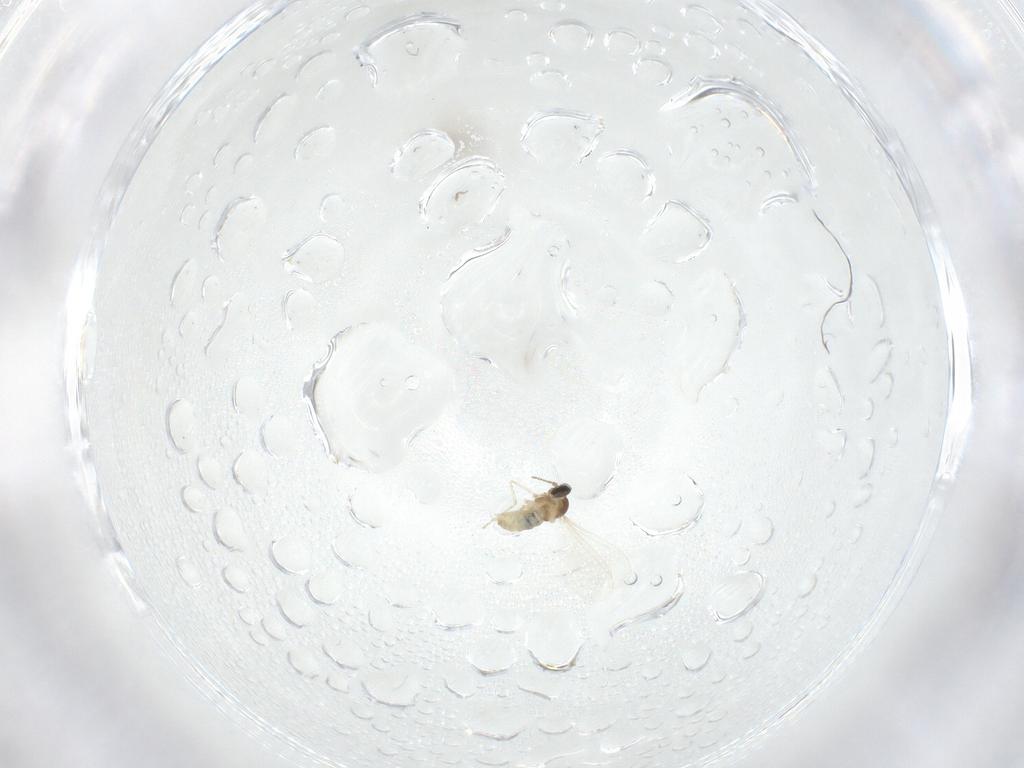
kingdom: Animalia
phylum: Arthropoda
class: Insecta
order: Diptera
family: Cecidomyiidae
